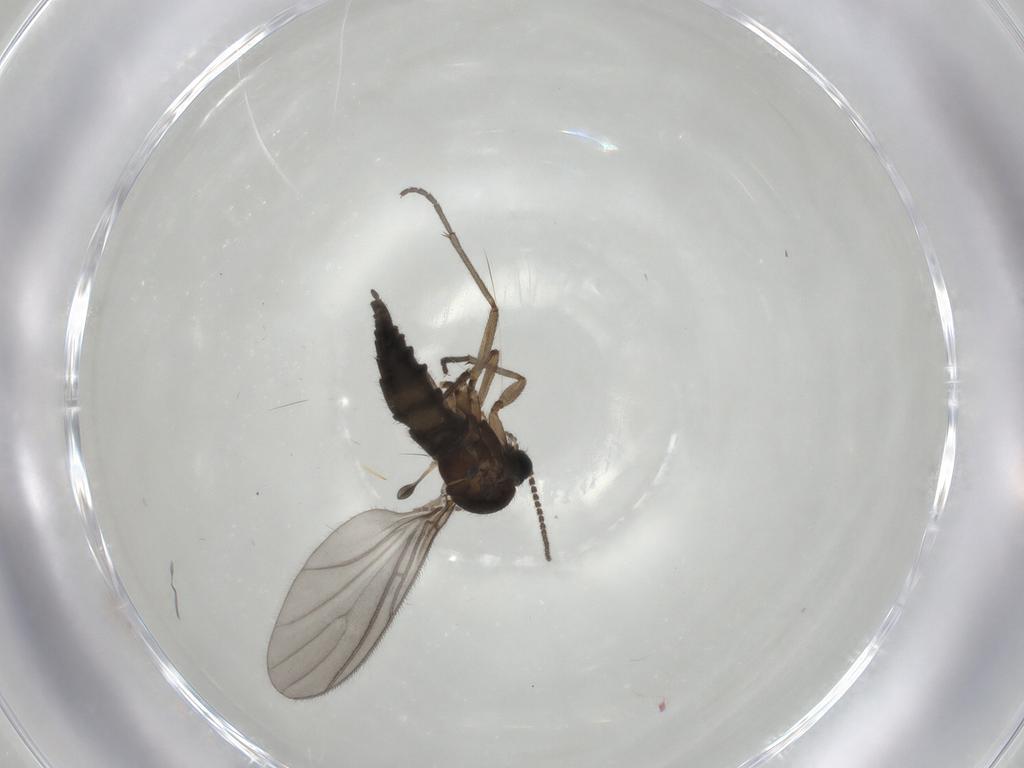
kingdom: Animalia
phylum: Arthropoda
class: Insecta
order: Diptera
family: Sciaridae
